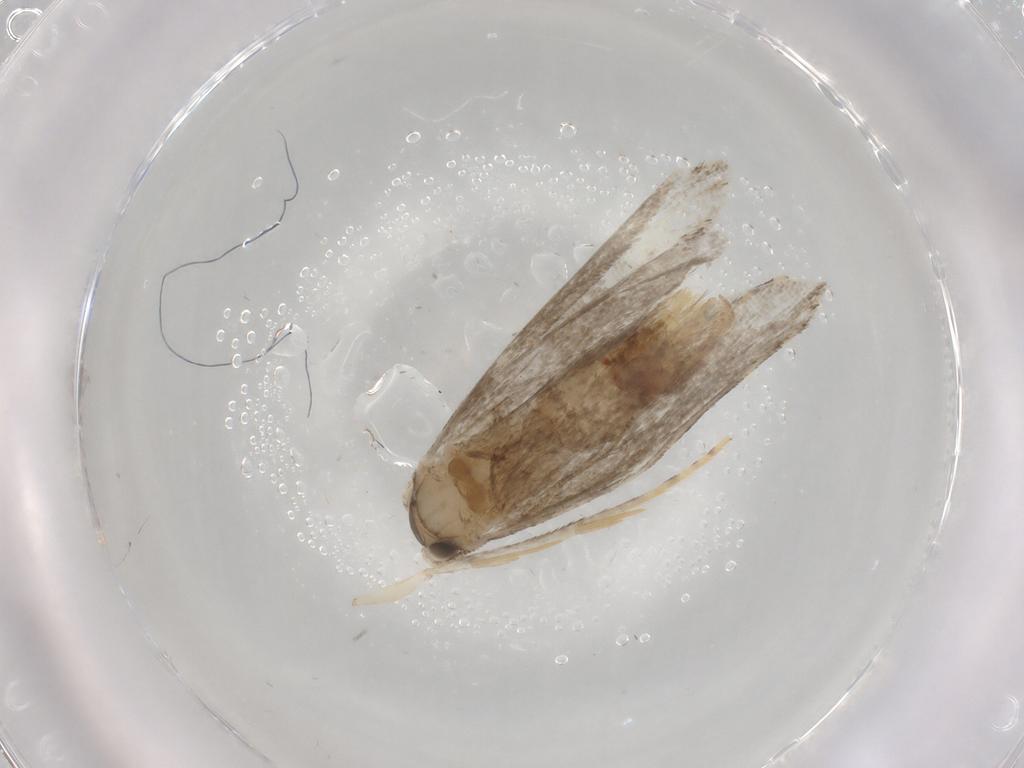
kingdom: Animalia
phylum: Arthropoda
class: Insecta
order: Lepidoptera
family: Tineidae
